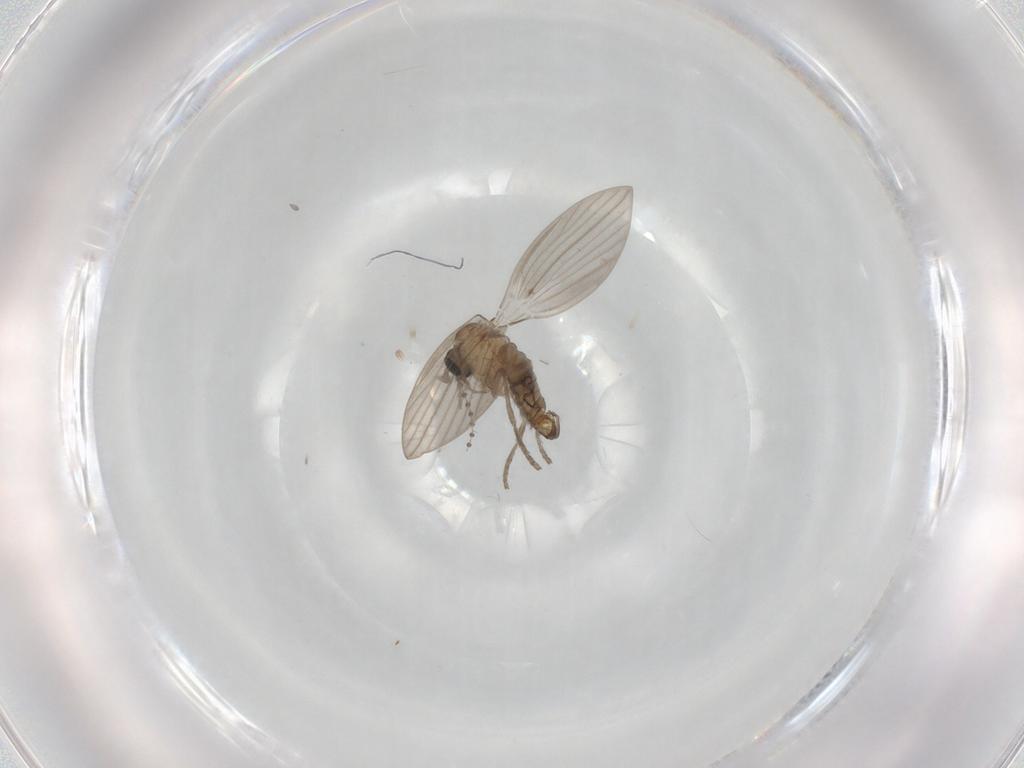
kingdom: Animalia
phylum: Arthropoda
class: Insecta
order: Diptera
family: Psychodidae
